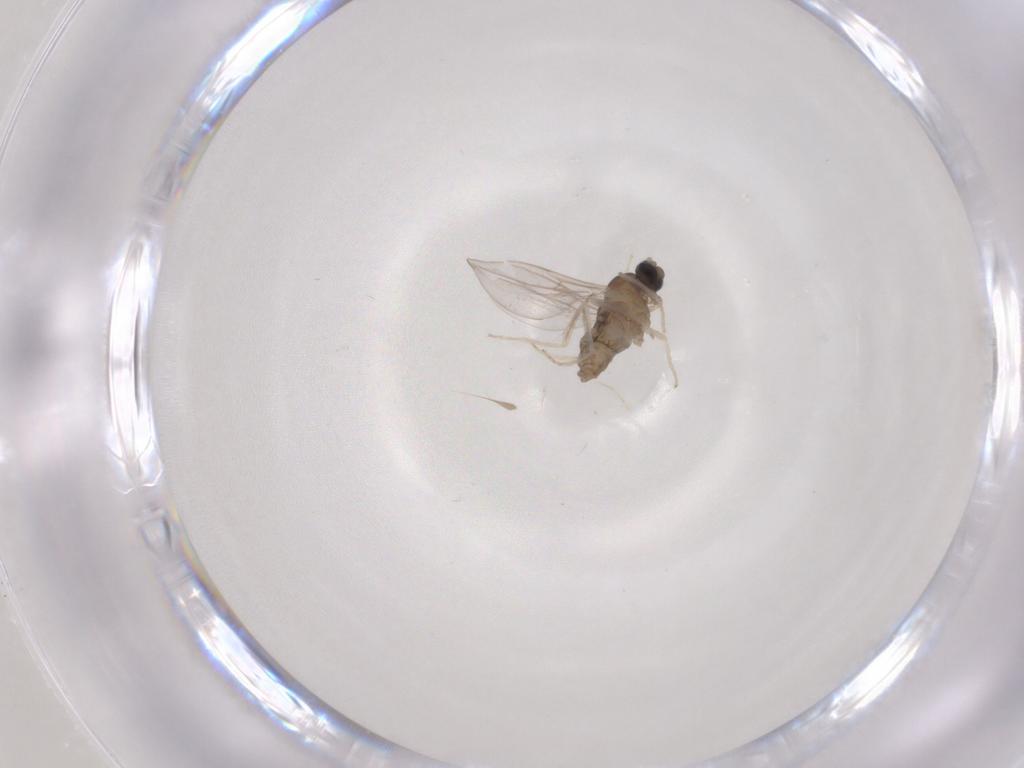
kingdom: Animalia
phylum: Arthropoda
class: Insecta
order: Diptera
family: Cecidomyiidae
